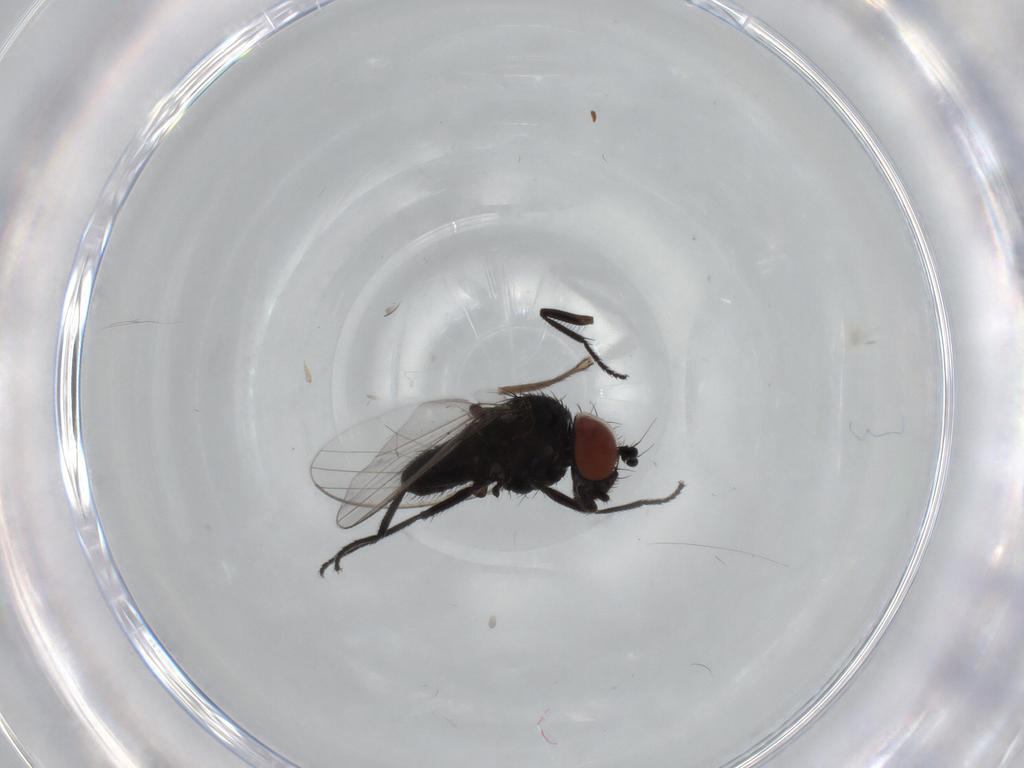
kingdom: Animalia
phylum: Arthropoda
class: Insecta
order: Diptera
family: Milichiidae
